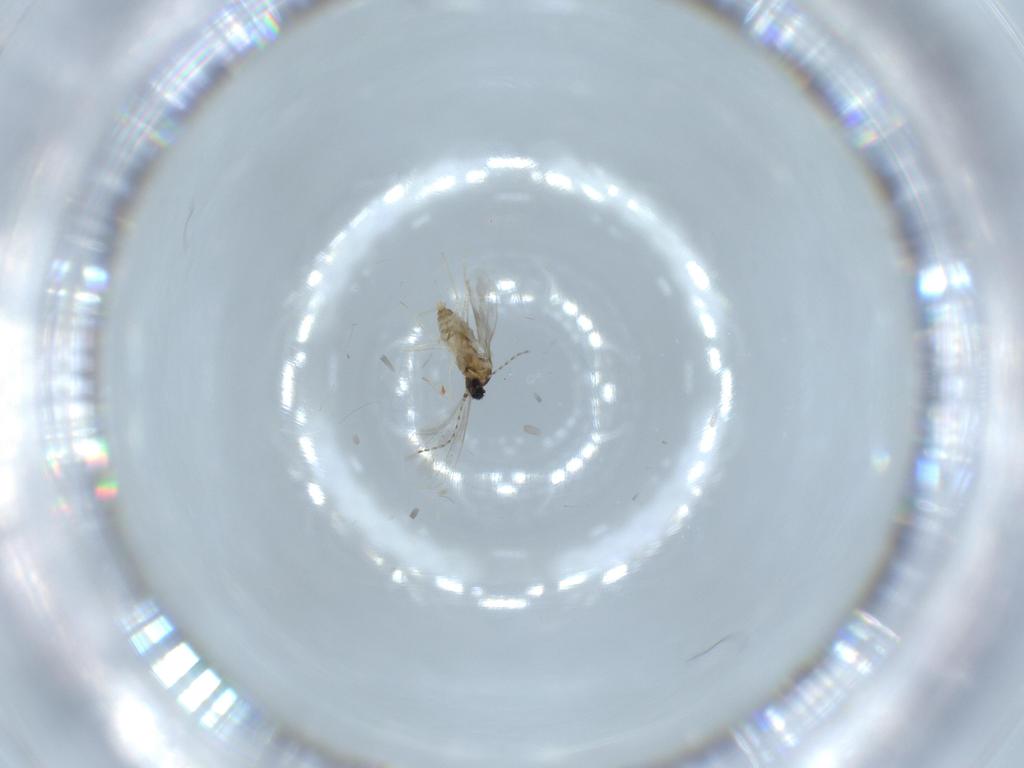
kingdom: Animalia
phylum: Arthropoda
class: Insecta
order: Diptera
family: Cecidomyiidae
